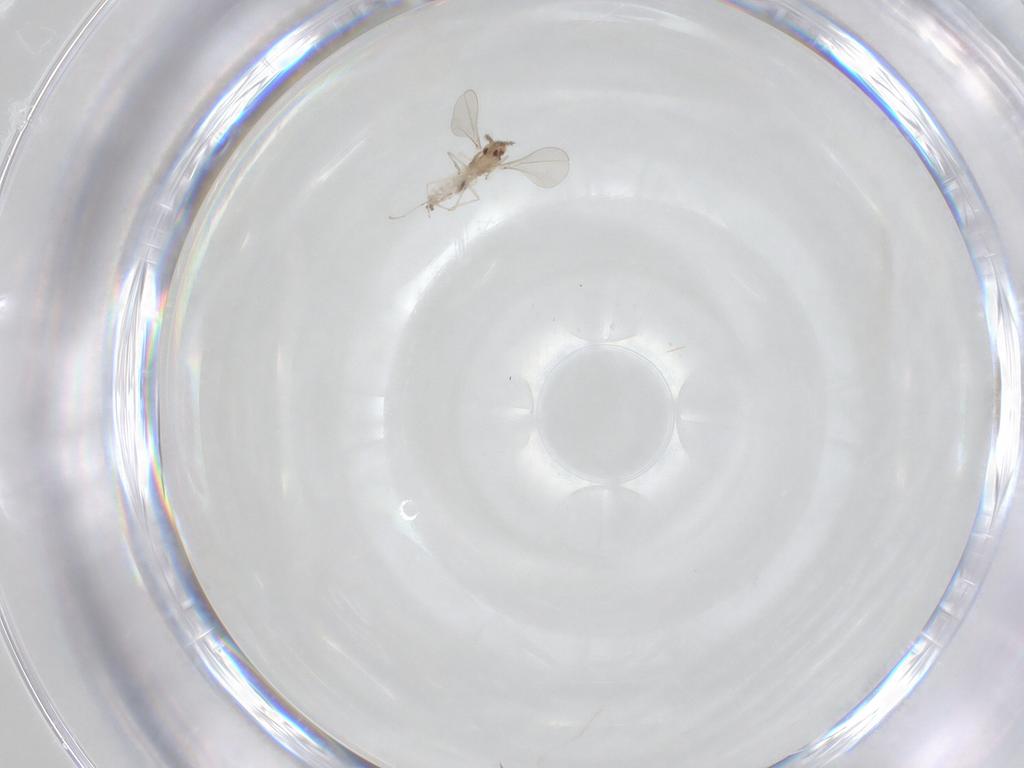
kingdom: Animalia
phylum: Arthropoda
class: Insecta
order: Diptera
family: Cecidomyiidae
